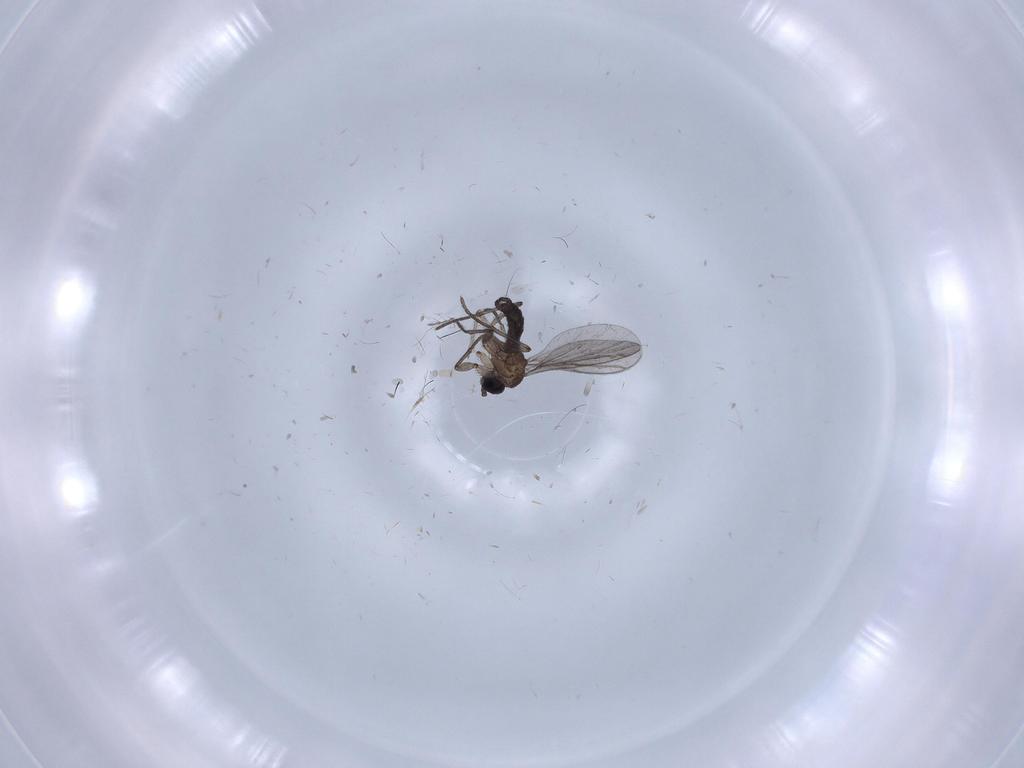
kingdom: Animalia
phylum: Arthropoda
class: Insecta
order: Diptera
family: Chironomidae
